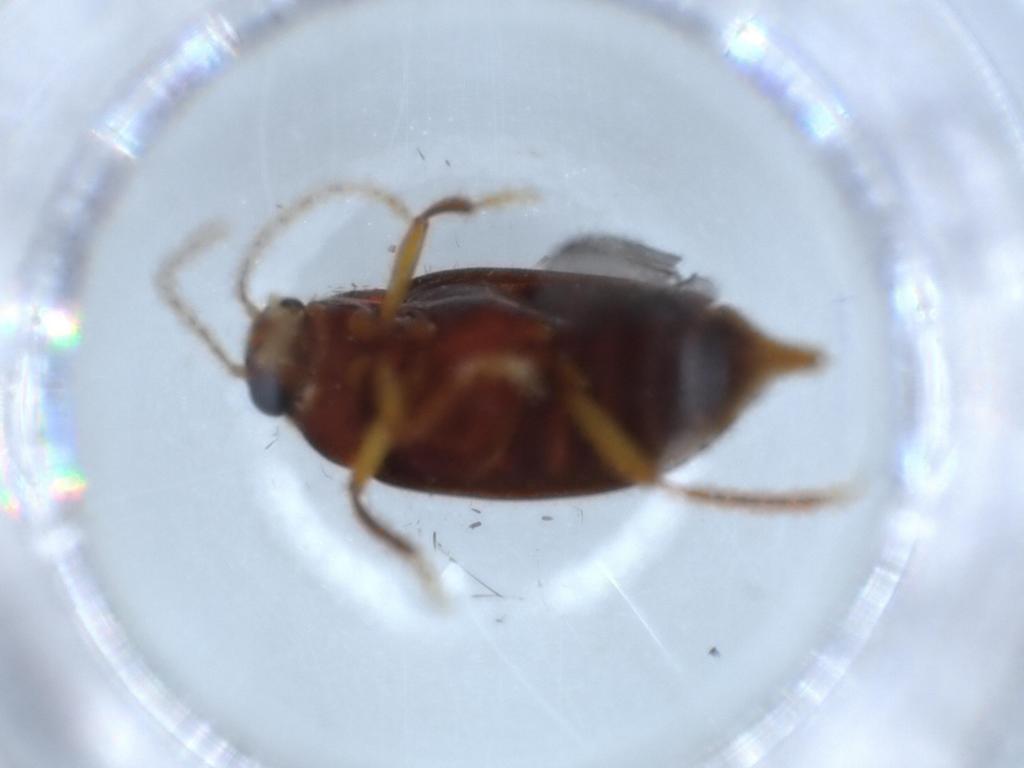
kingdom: Animalia
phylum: Arthropoda
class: Insecta
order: Coleoptera
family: Ptilodactylidae
